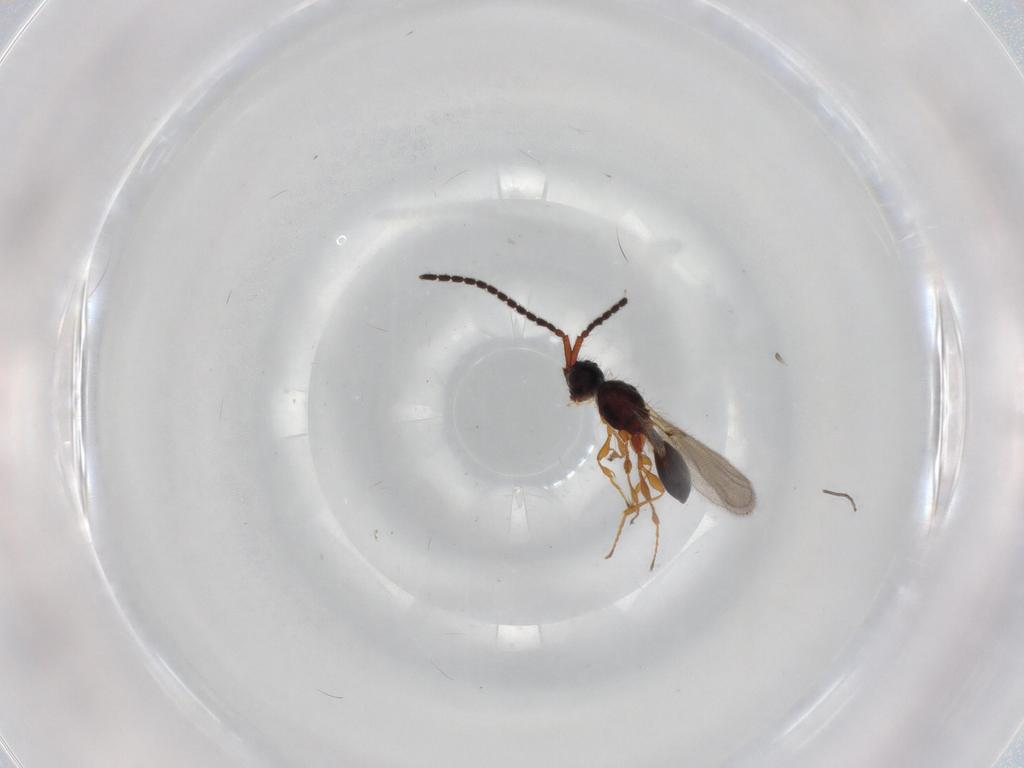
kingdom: Animalia
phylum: Arthropoda
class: Insecta
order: Hymenoptera
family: Diapriidae
